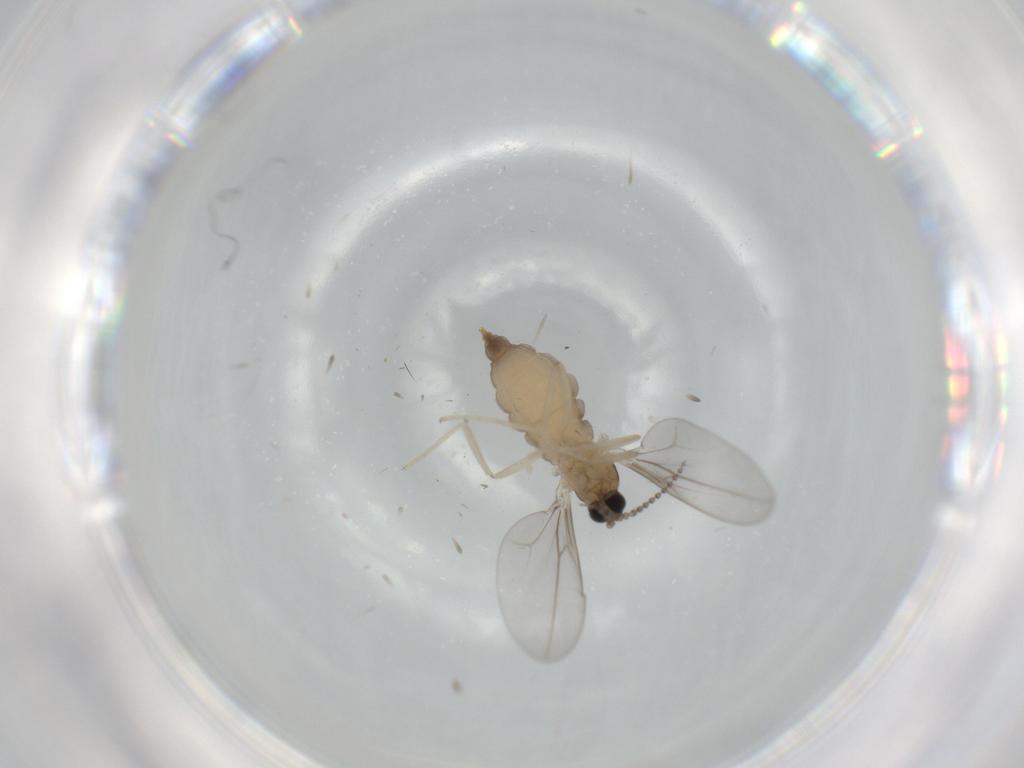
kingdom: Animalia
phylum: Arthropoda
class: Insecta
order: Diptera
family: Cecidomyiidae
